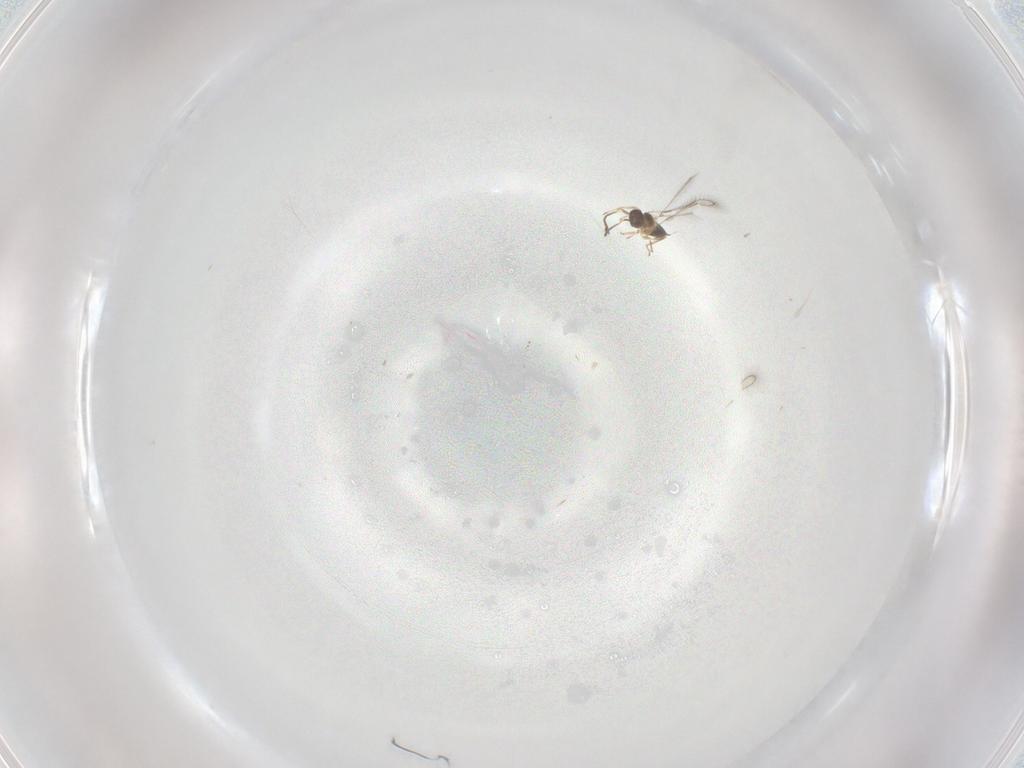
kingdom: Animalia
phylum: Arthropoda
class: Insecta
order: Hymenoptera
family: Mymaridae
